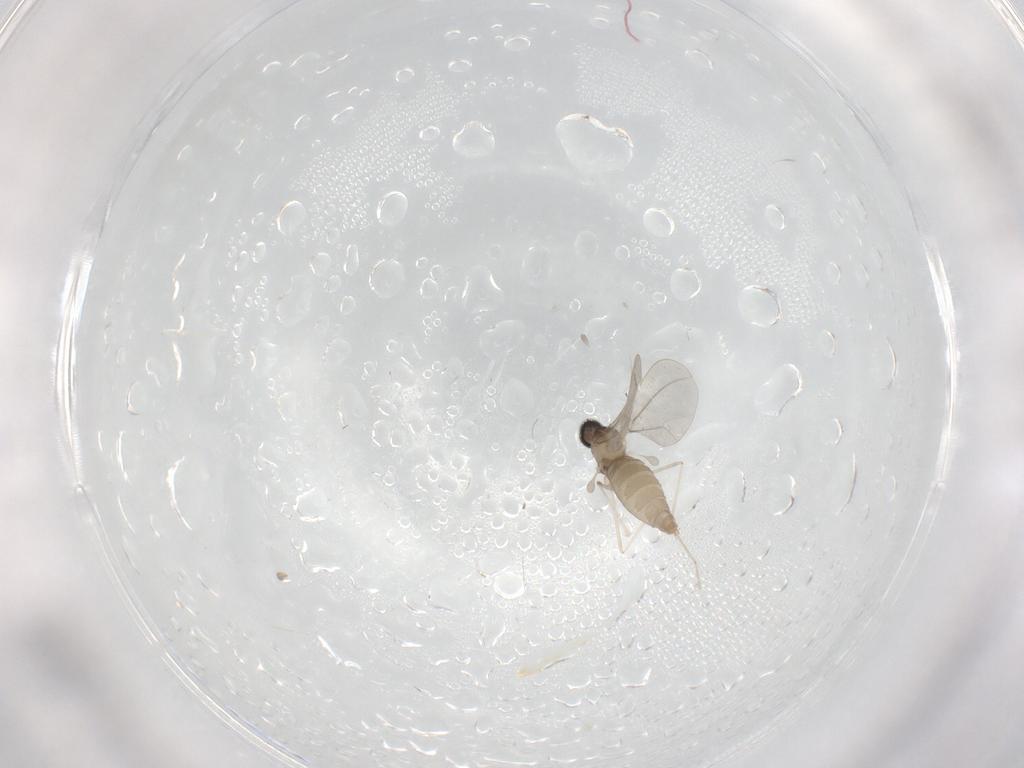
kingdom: Animalia
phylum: Arthropoda
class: Insecta
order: Diptera
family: Cecidomyiidae
